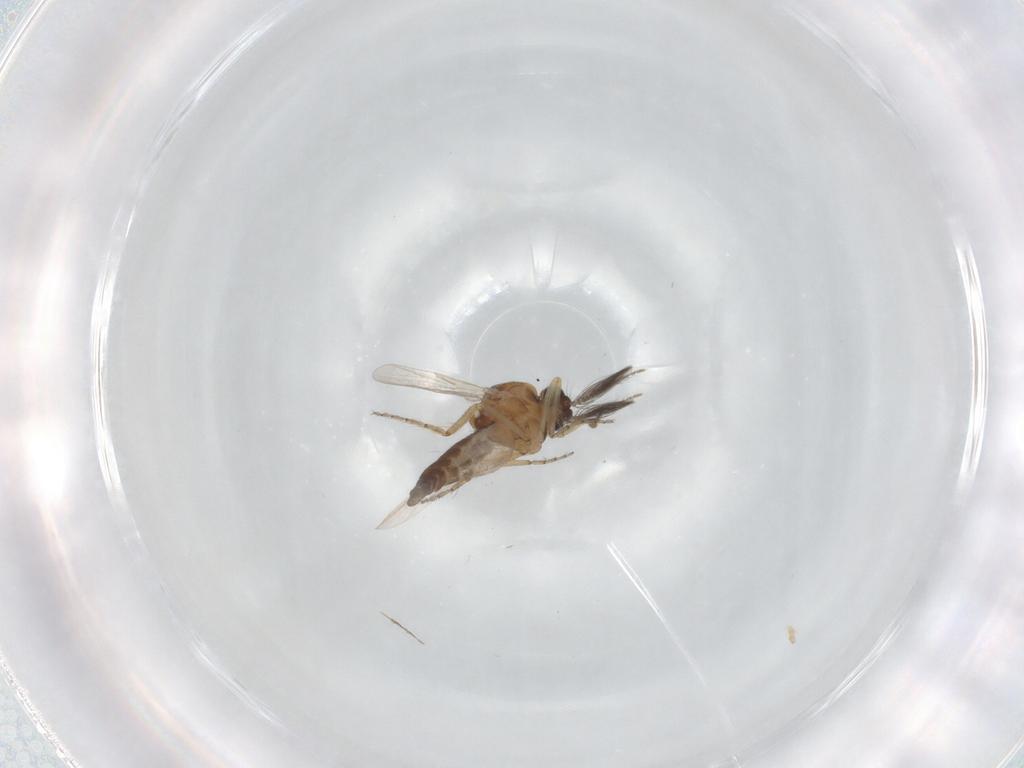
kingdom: Animalia
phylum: Arthropoda
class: Insecta
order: Diptera
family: Ceratopogonidae
